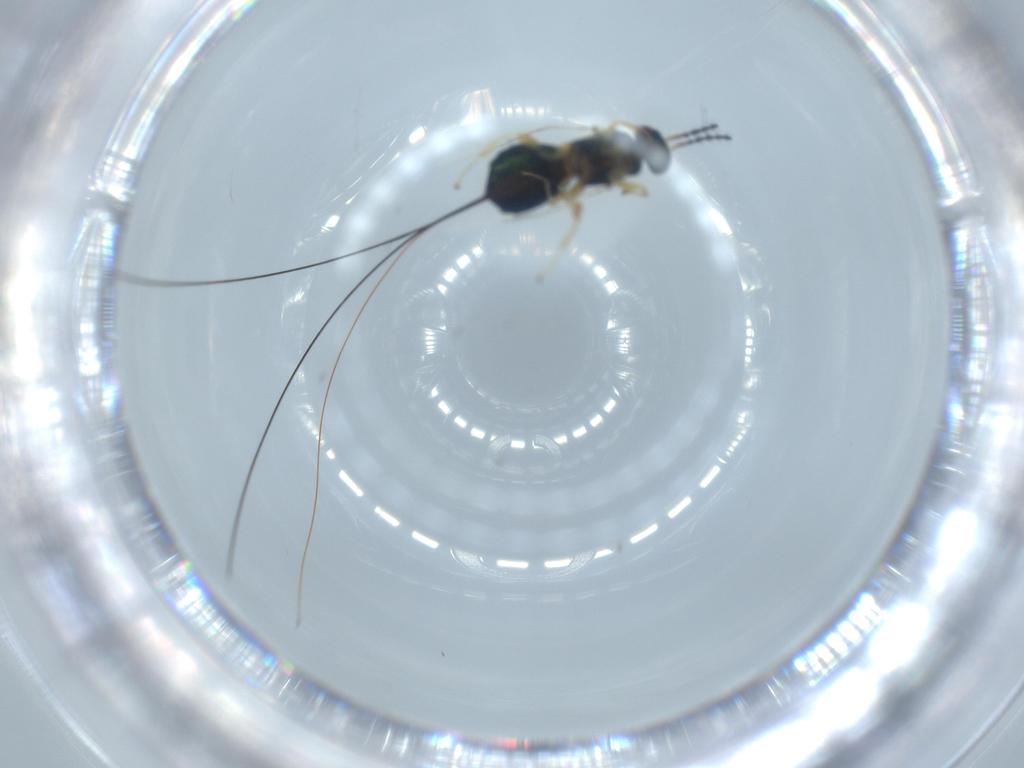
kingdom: Animalia
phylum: Arthropoda
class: Insecta
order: Hymenoptera
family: Agaonidae
